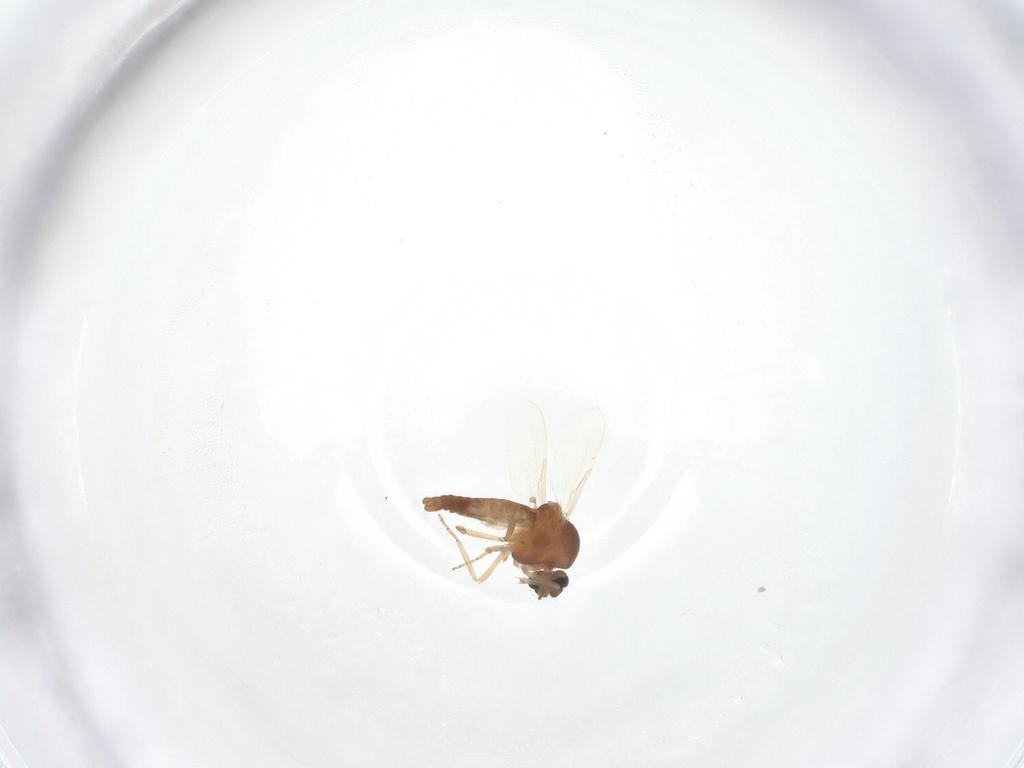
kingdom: Animalia
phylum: Arthropoda
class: Insecta
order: Diptera
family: Ceratopogonidae
